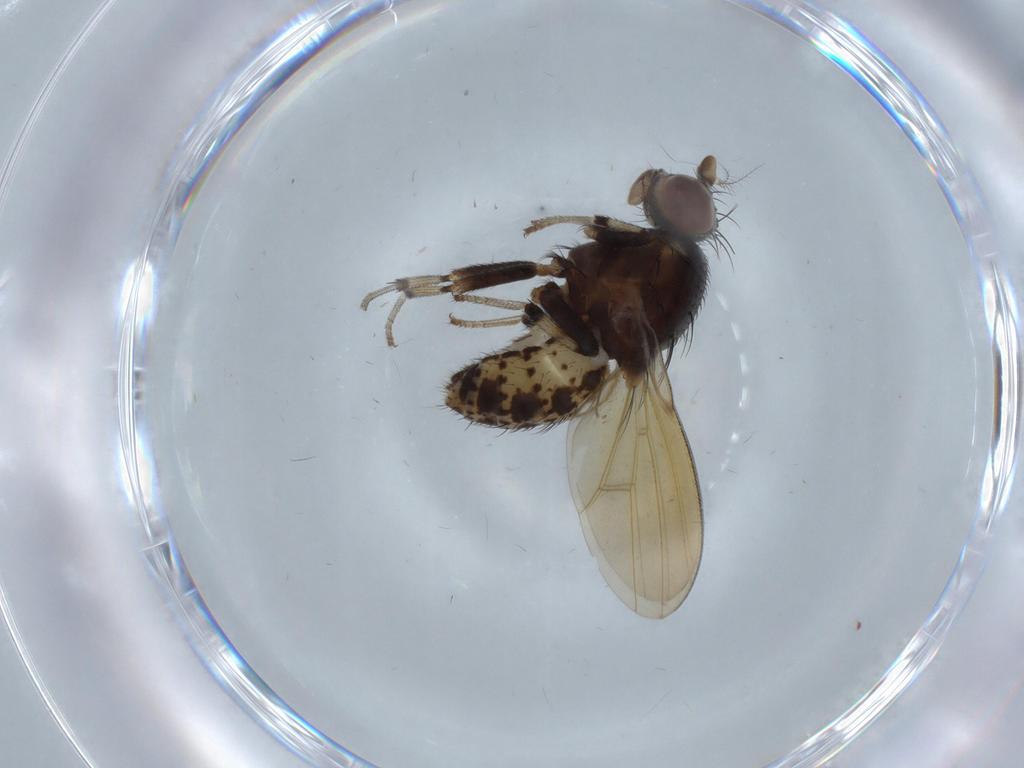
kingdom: Animalia
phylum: Arthropoda
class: Insecta
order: Diptera
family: Chironomidae
